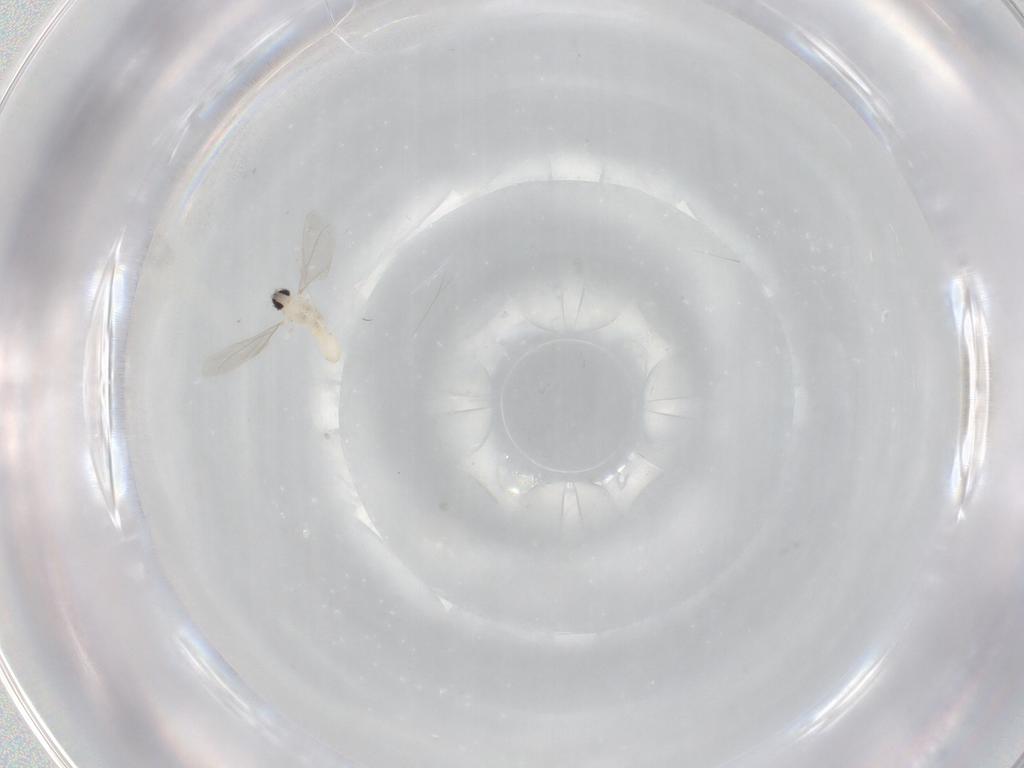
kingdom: Animalia
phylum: Arthropoda
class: Insecta
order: Diptera
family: Cecidomyiidae
